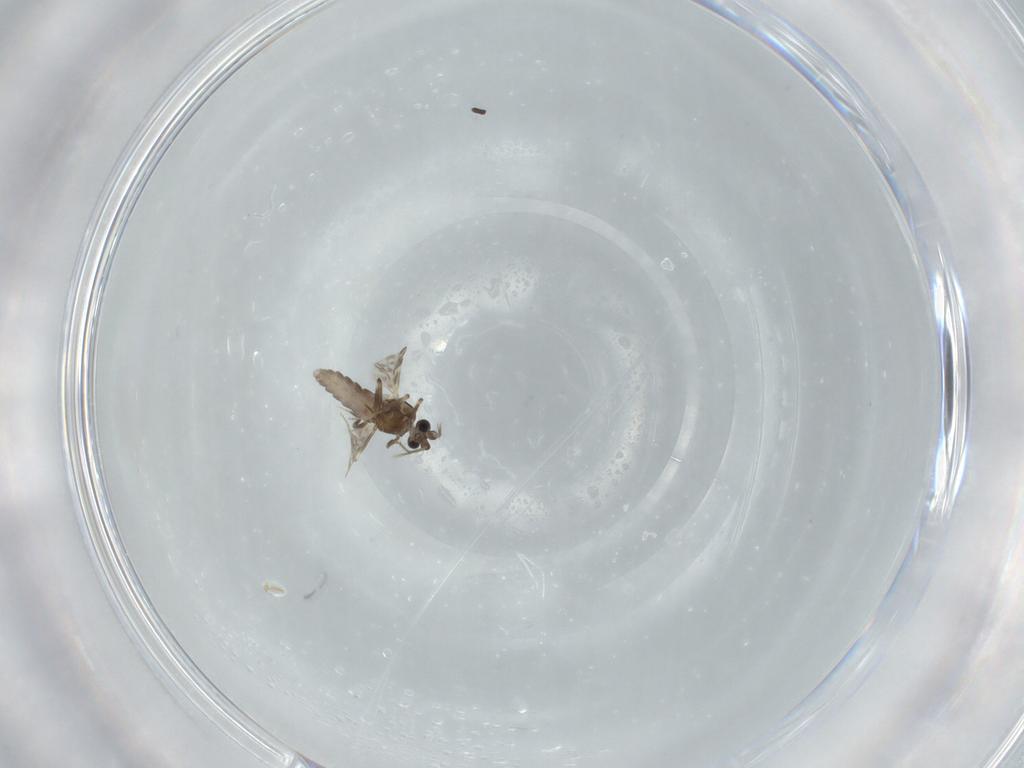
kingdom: Animalia
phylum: Arthropoda
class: Insecta
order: Diptera
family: Ceratopogonidae
